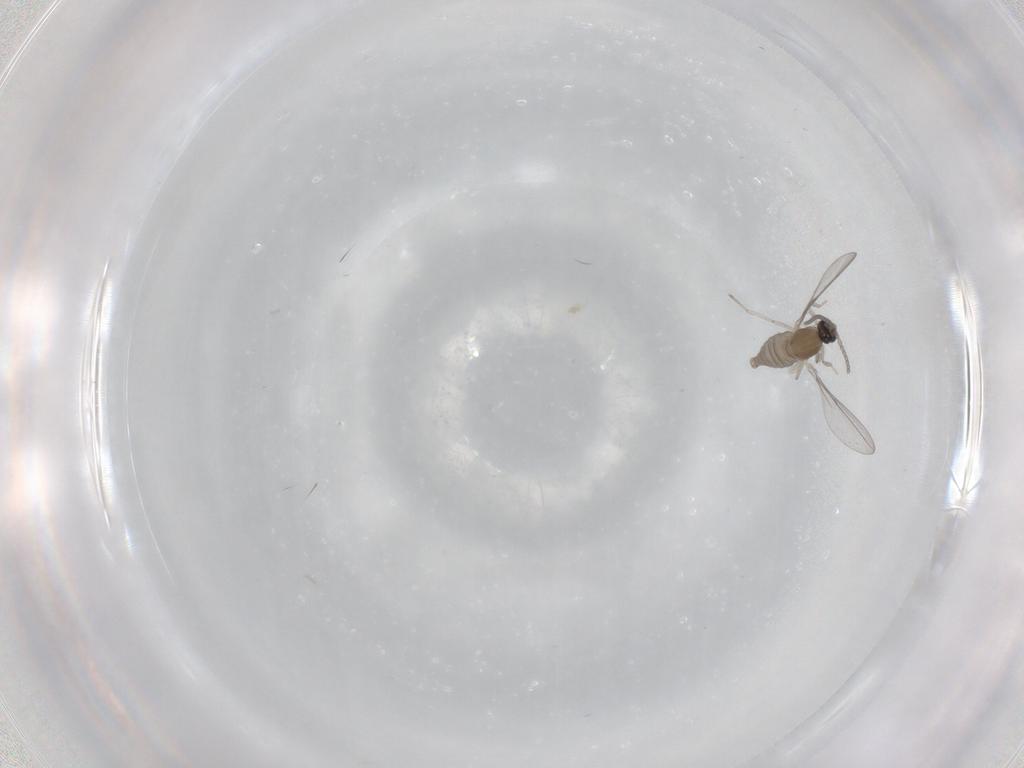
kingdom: Animalia
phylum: Arthropoda
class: Insecta
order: Diptera
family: Cecidomyiidae
